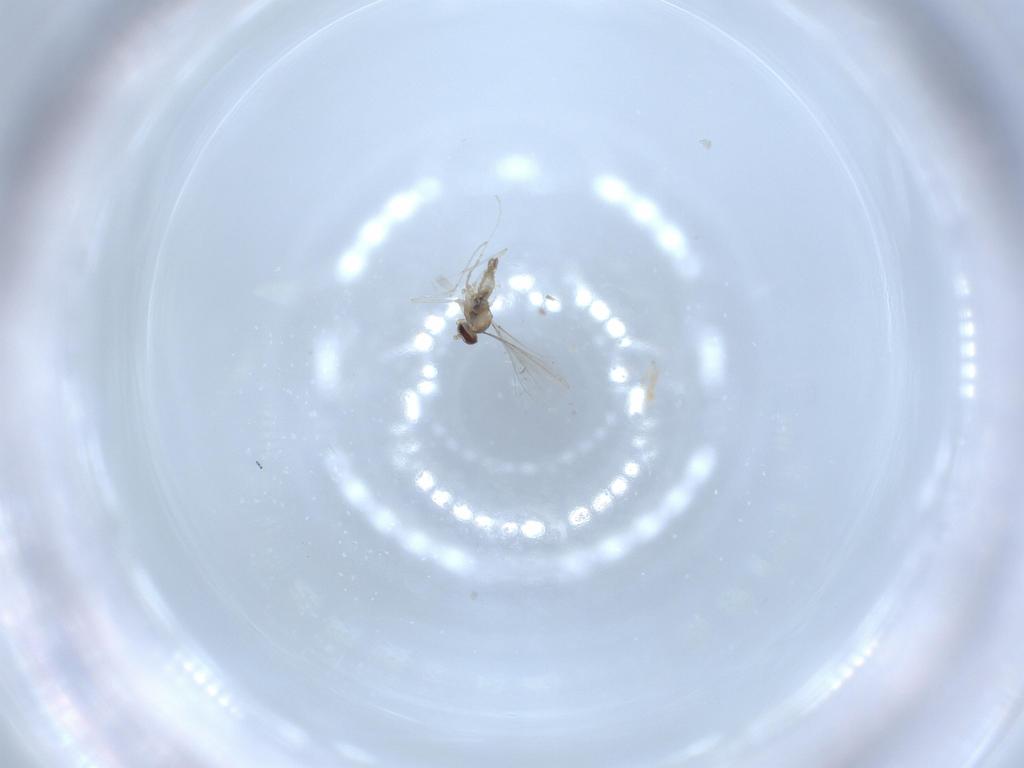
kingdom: Animalia
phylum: Arthropoda
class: Insecta
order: Diptera
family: Cecidomyiidae
